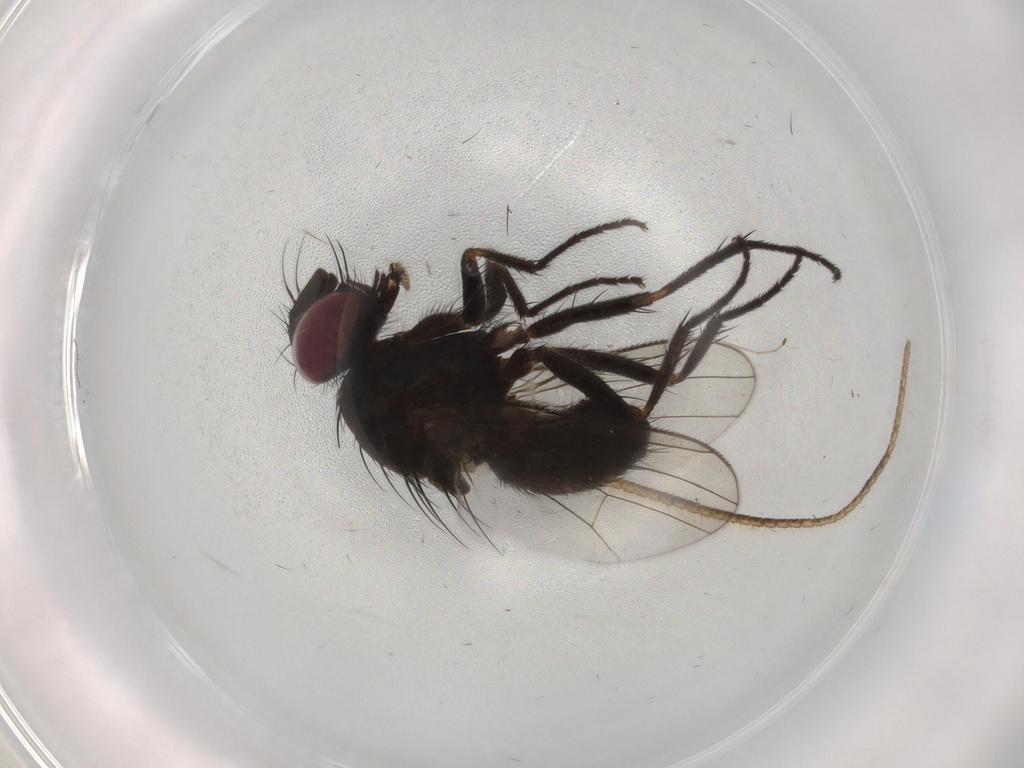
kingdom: Animalia
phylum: Arthropoda
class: Insecta
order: Diptera
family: Muscidae
